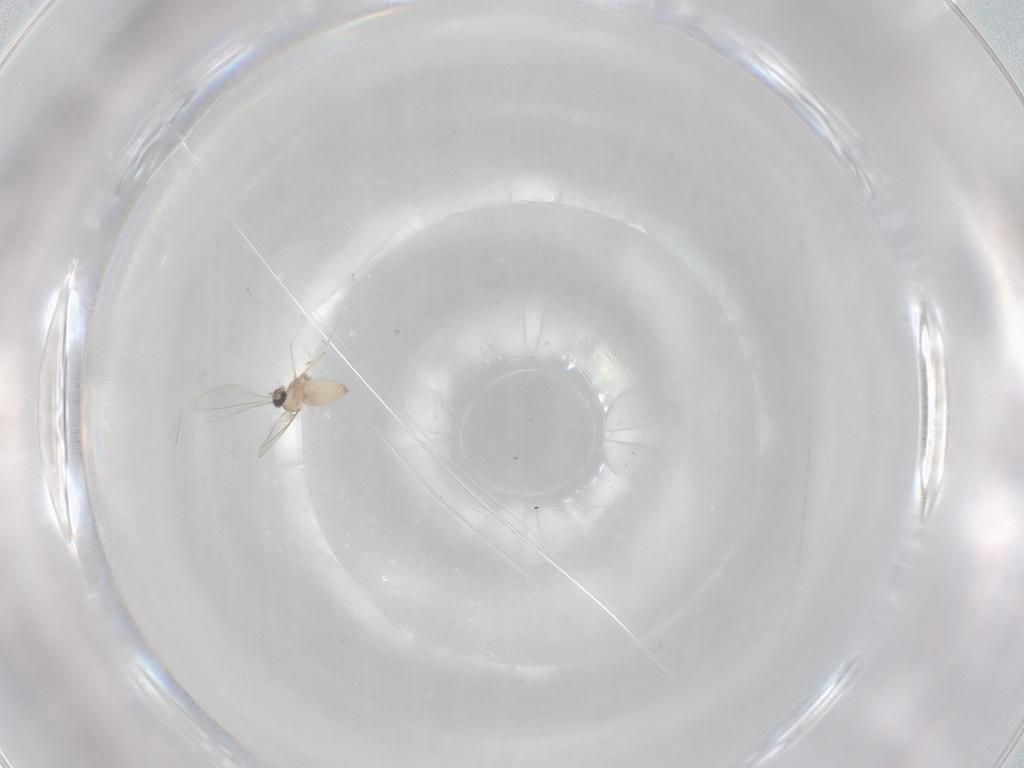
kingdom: Animalia
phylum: Arthropoda
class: Insecta
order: Diptera
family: Cecidomyiidae
